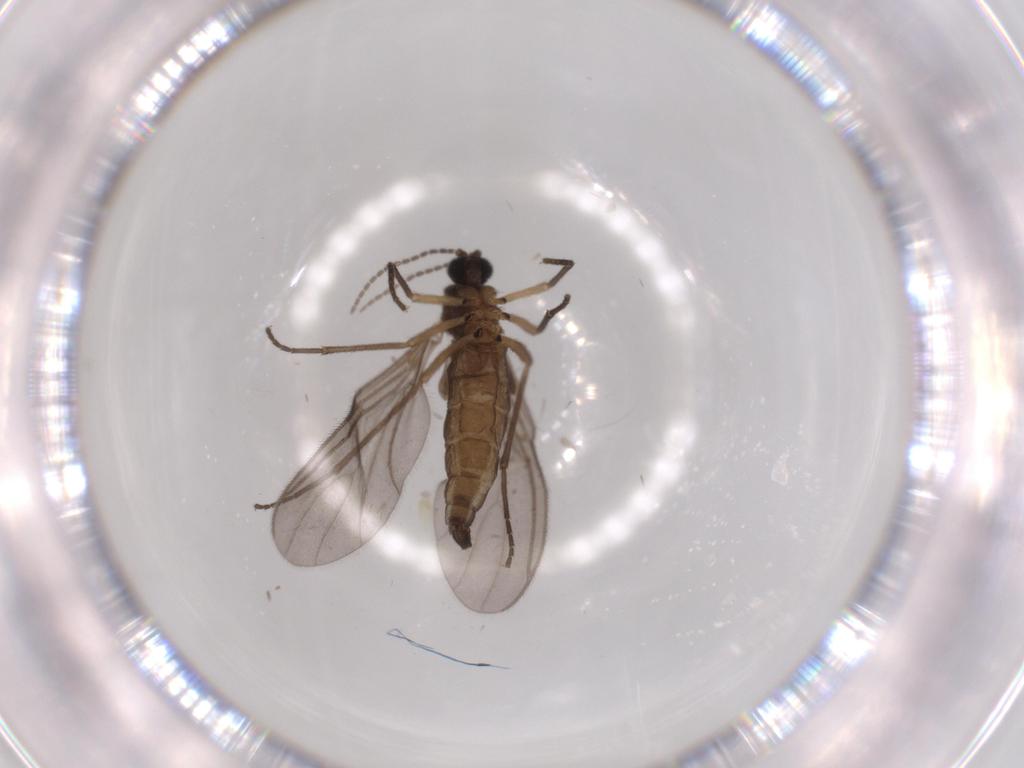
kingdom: Animalia
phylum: Arthropoda
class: Insecta
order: Diptera
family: Sciaridae
